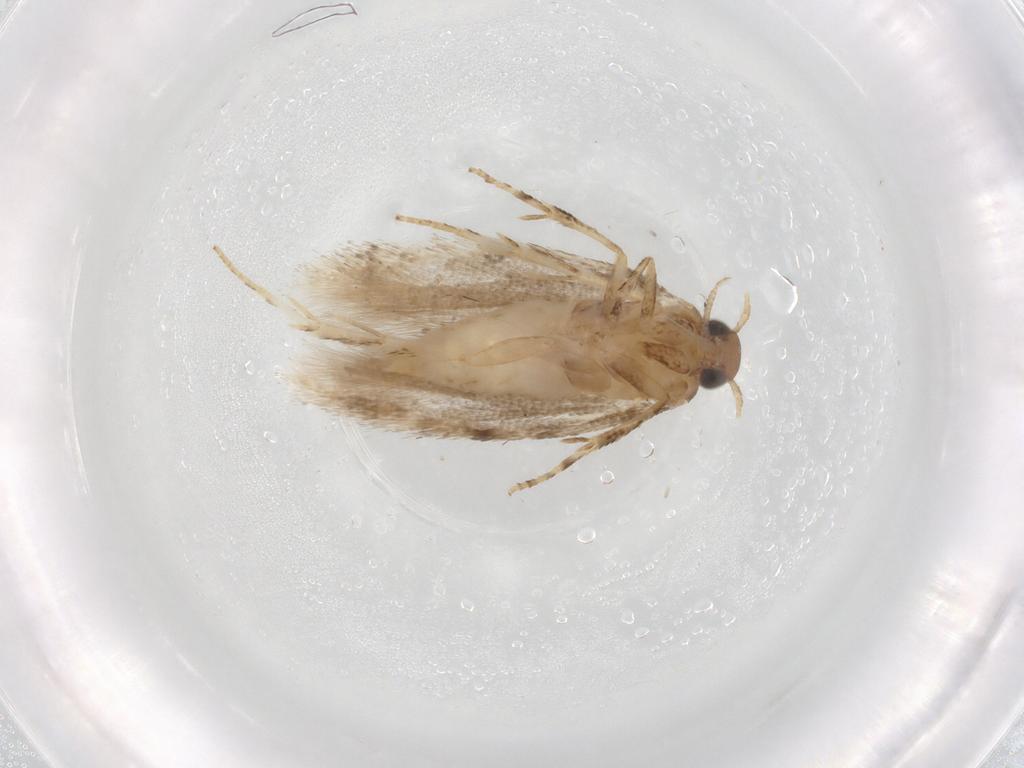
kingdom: Animalia
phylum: Arthropoda
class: Insecta
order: Lepidoptera
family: Gelechiidae
